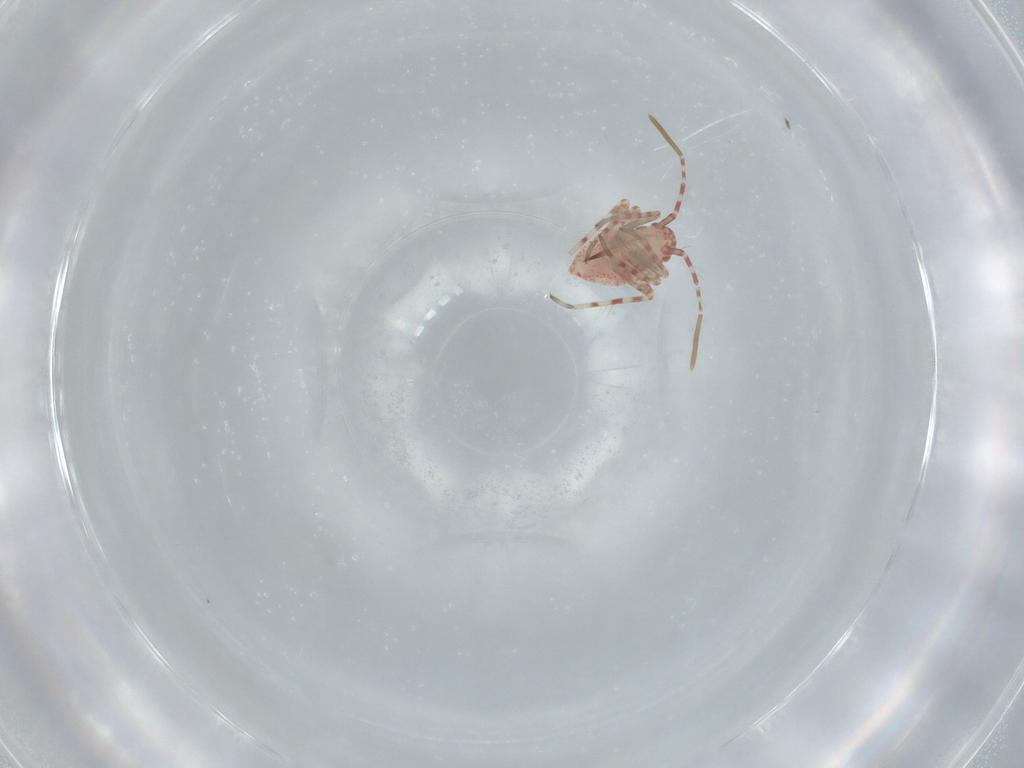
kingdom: Animalia
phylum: Arthropoda
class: Insecta
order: Hemiptera
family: Miridae
